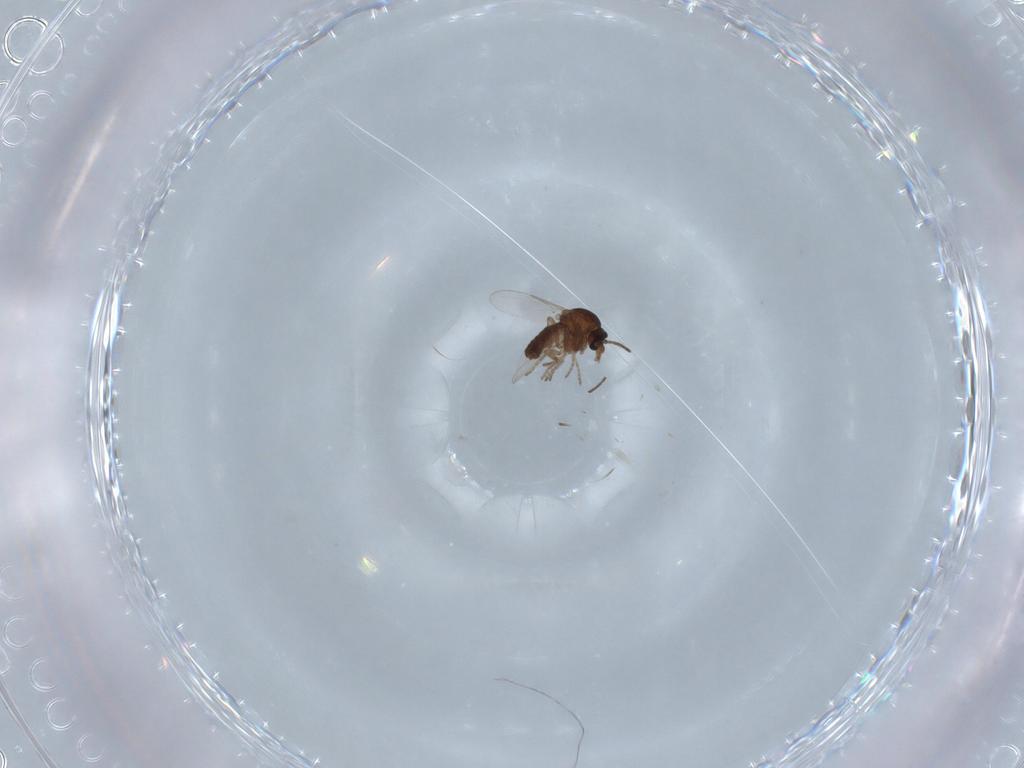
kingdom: Animalia
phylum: Arthropoda
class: Insecta
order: Diptera
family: Ceratopogonidae
